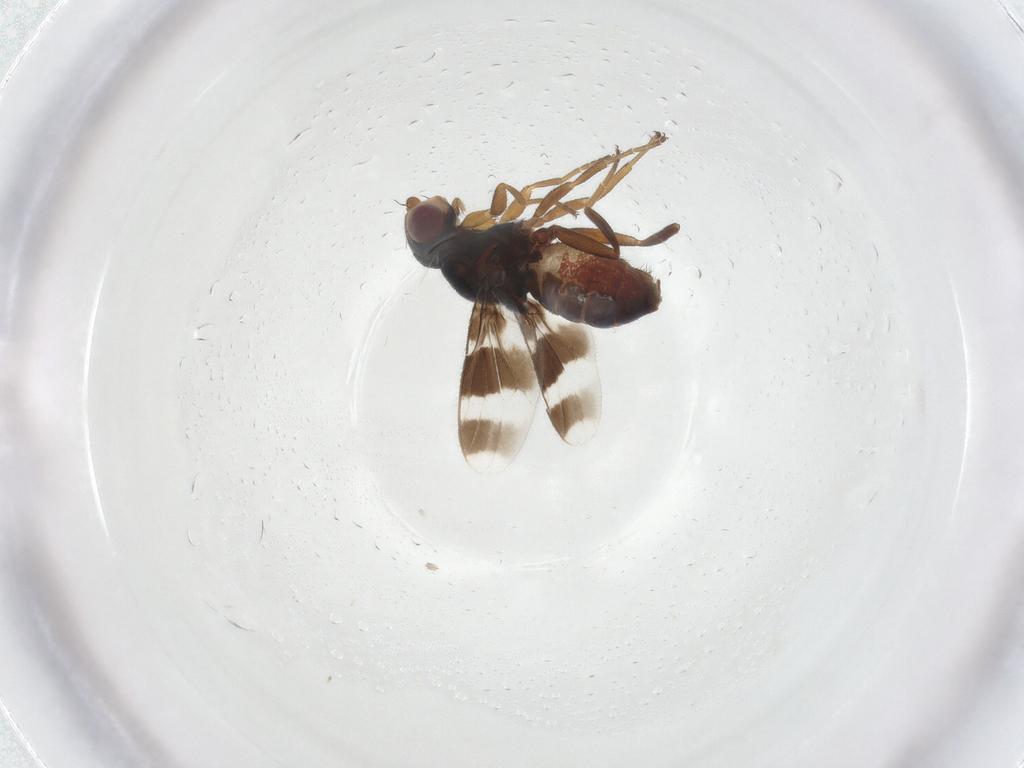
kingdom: Animalia
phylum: Arthropoda
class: Insecta
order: Diptera
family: Chloropidae
